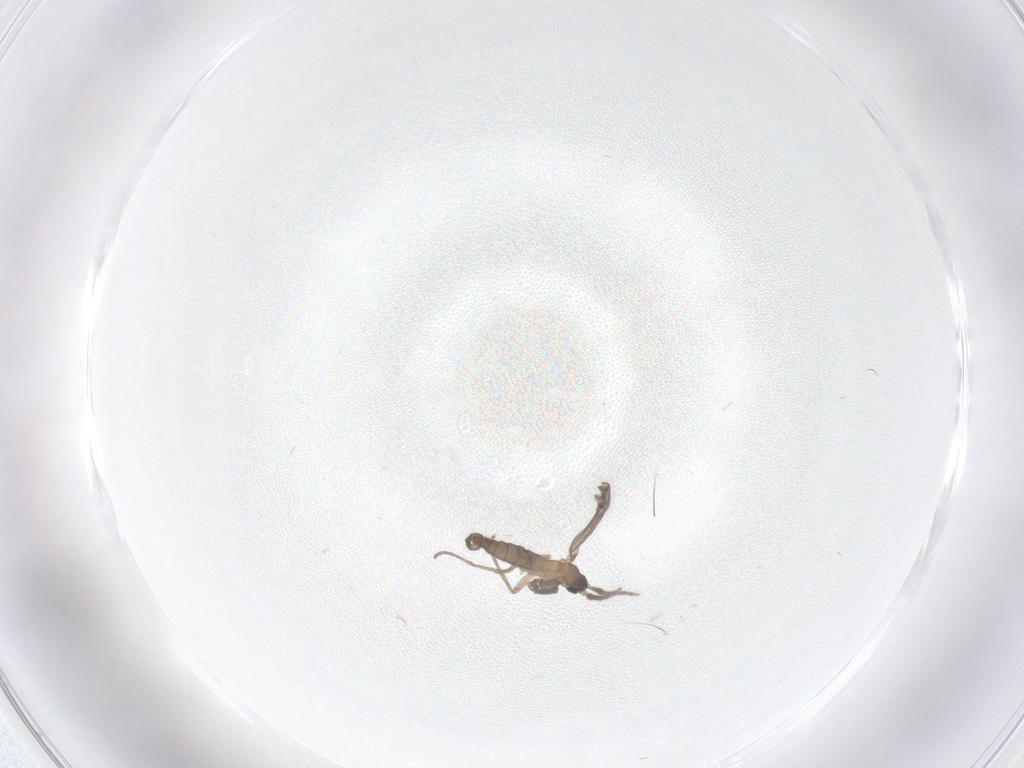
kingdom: Animalia
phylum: Arthropoda
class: Insecta
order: Diptera
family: Sciaridae
